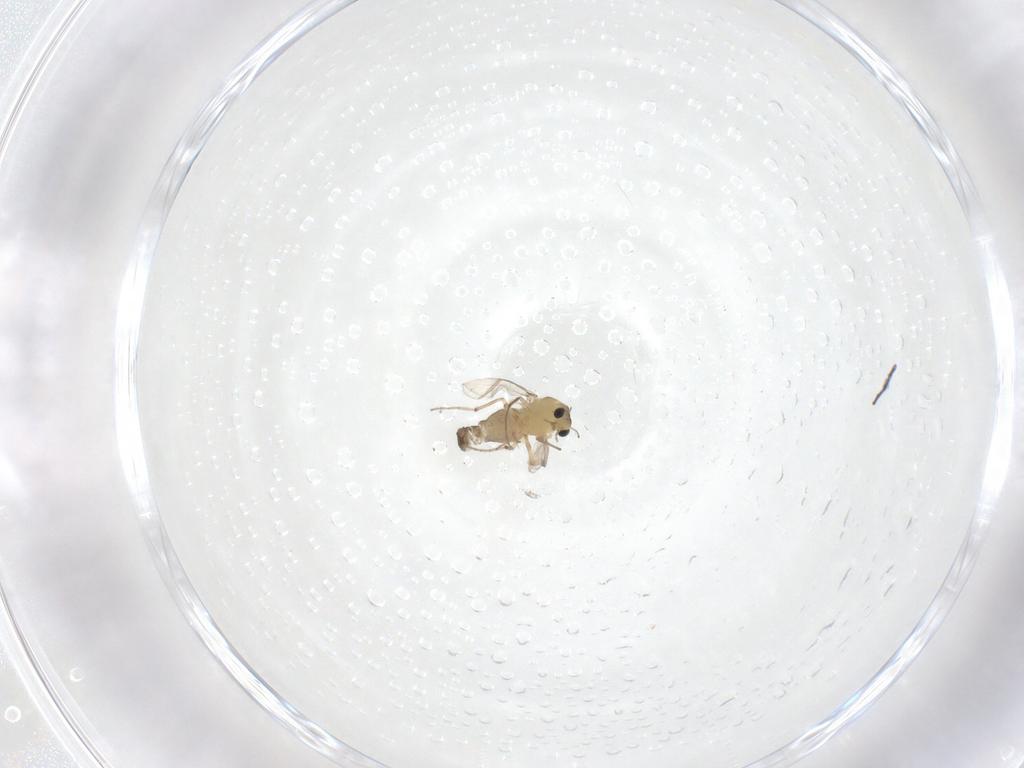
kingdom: Animalia
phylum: Arthropoda
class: Insecta
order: Diptera
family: Chironomidae
